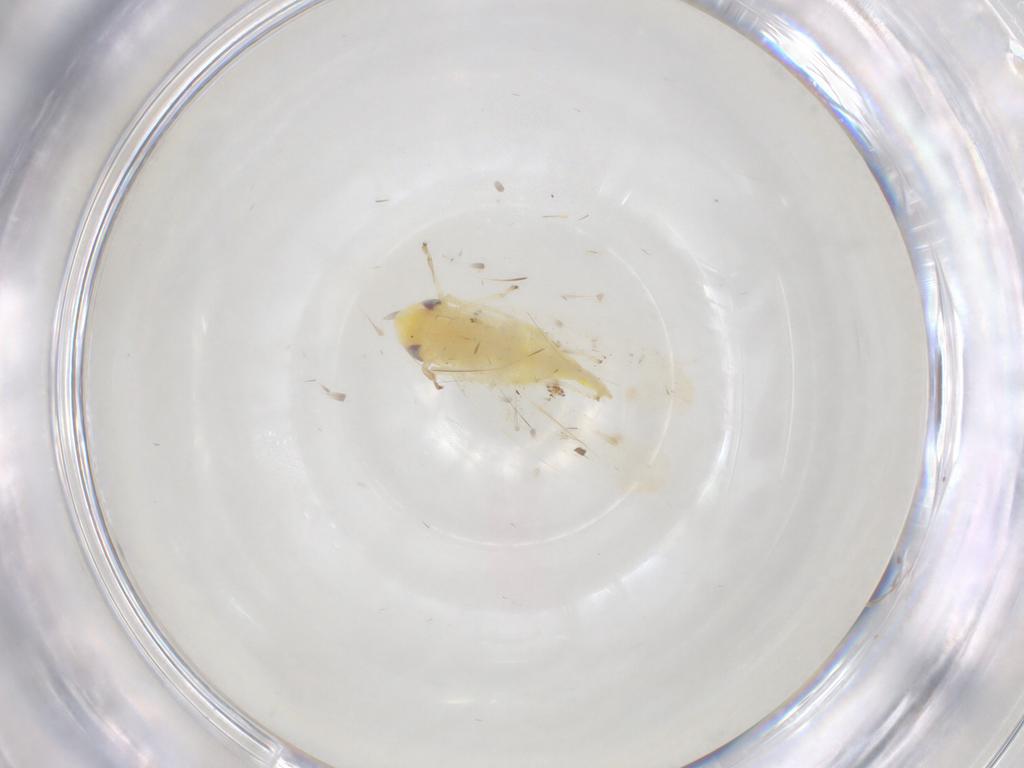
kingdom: Animalia
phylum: Arthropoda
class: Insecta
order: Hemiptera
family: Cicadellidae
